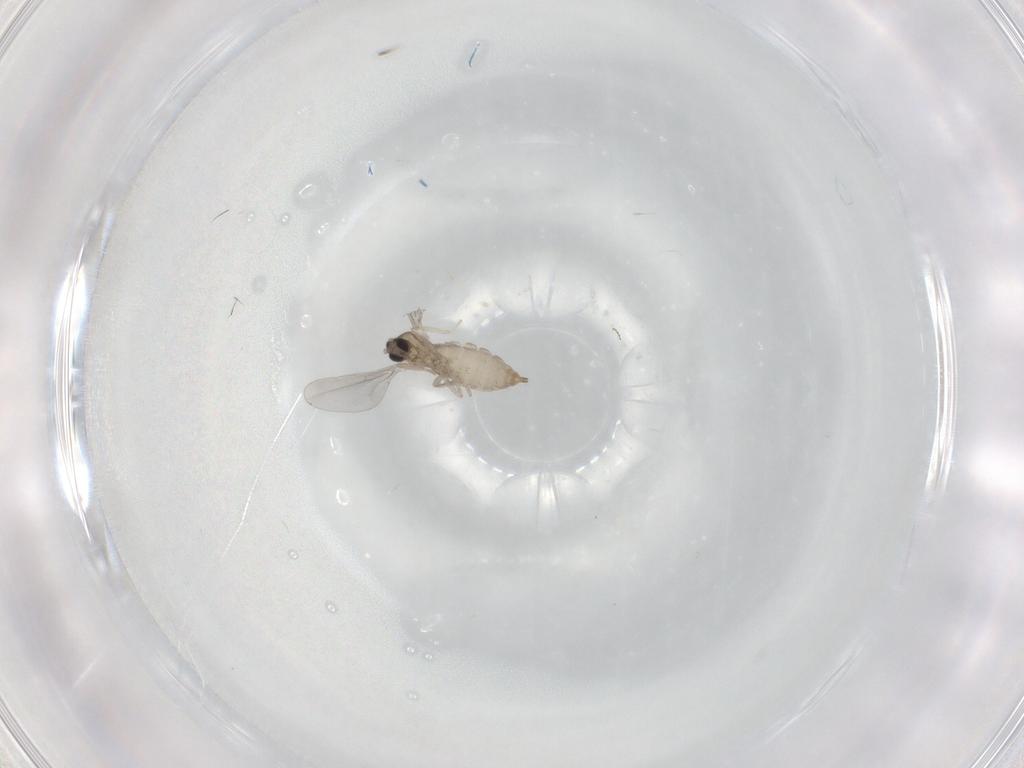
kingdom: Animalia
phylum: Arthropoda
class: Insecta
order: Diptera
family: Cecidomyiidae
